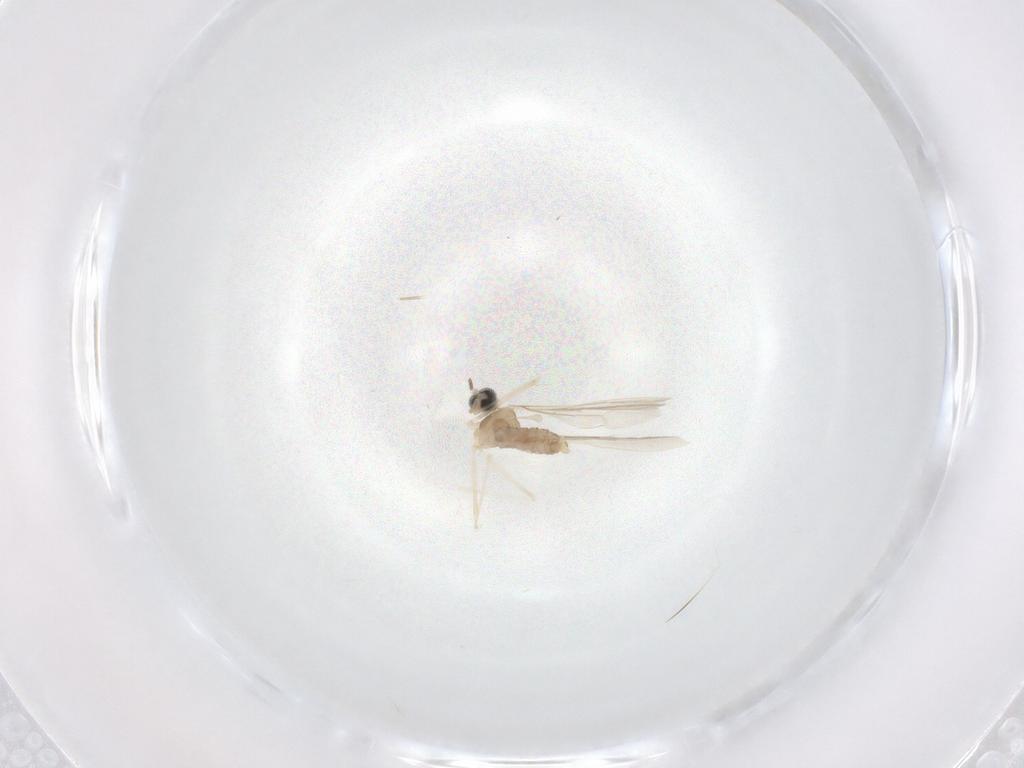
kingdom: Animalia
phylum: Arthropoda
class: Insecta
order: Diptera
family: Cecidomyiidae
